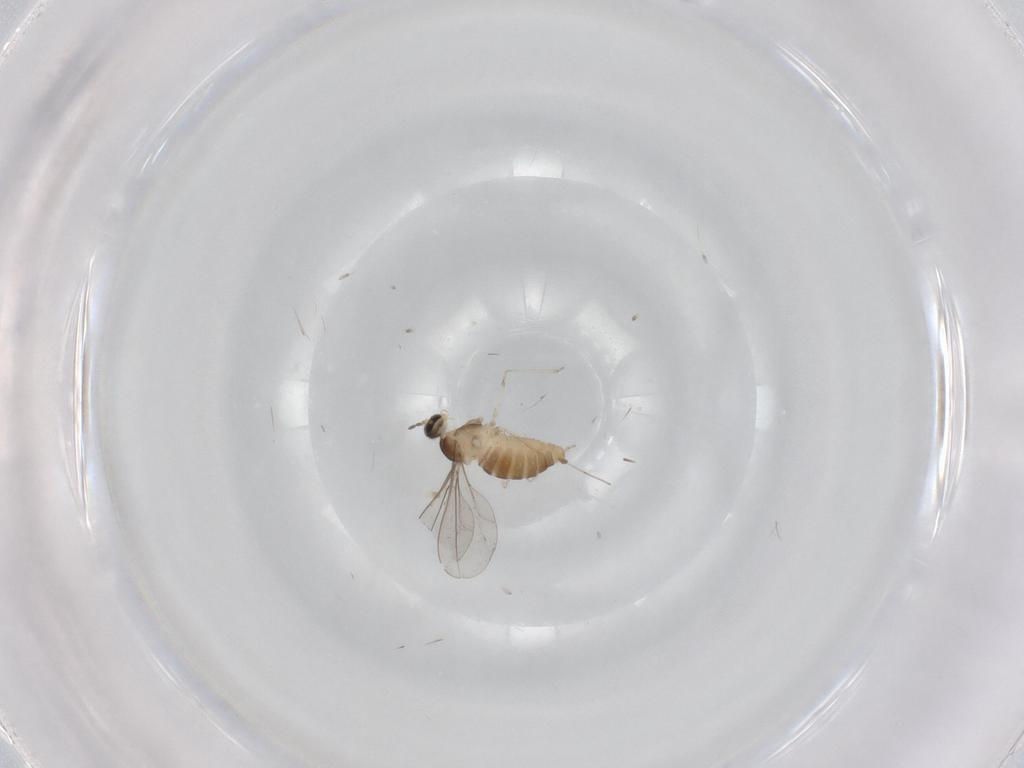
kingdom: Animalia
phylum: Arthropoda
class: Insecta
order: Diptera
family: Cecidomyiidae
